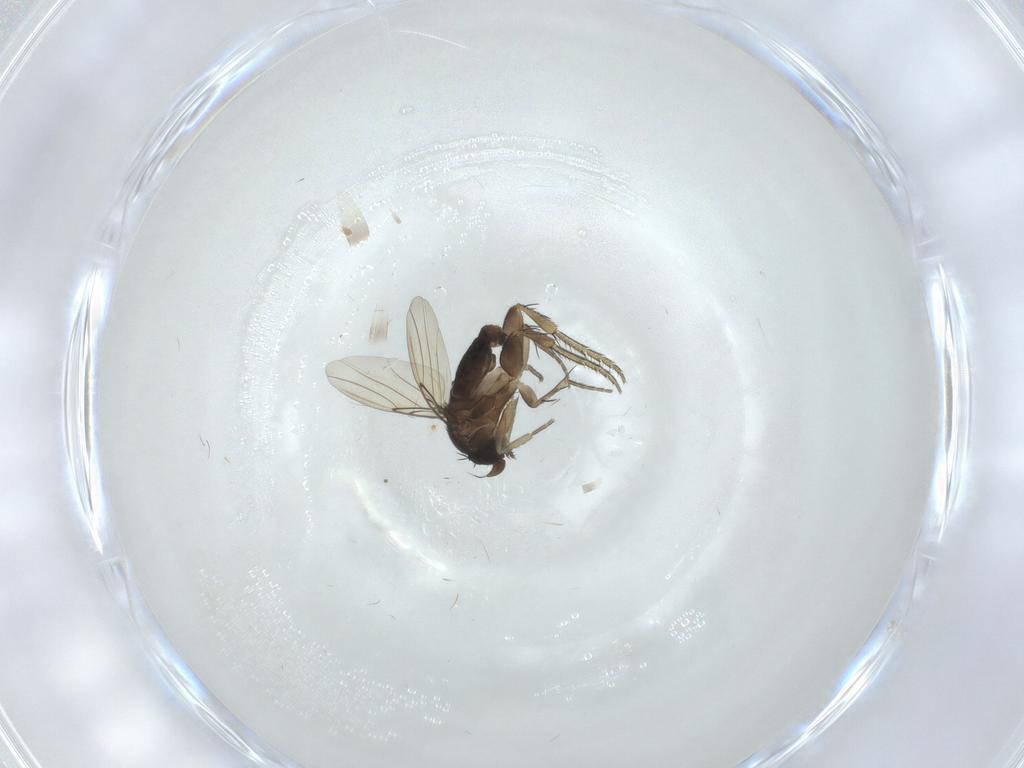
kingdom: Animalia
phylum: Arthropoda
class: Insecta
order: Diptera
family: Phoridae
